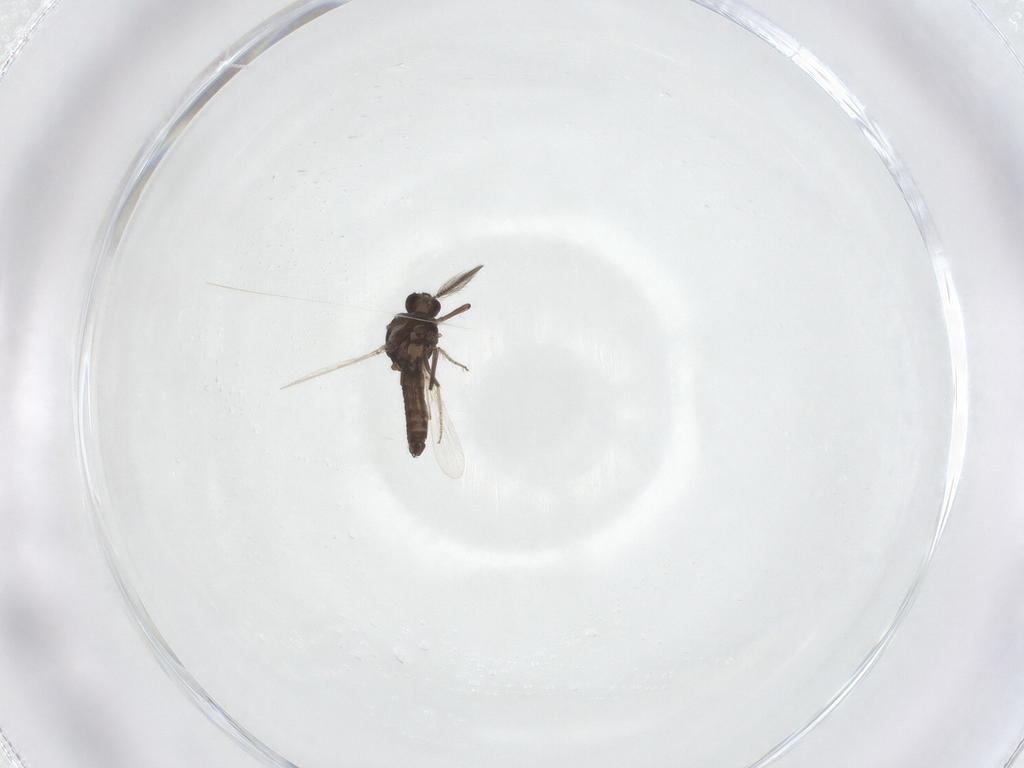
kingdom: Animalia
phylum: Arthropoda
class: Insecta
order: Diptera
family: Ceratopogonidae
